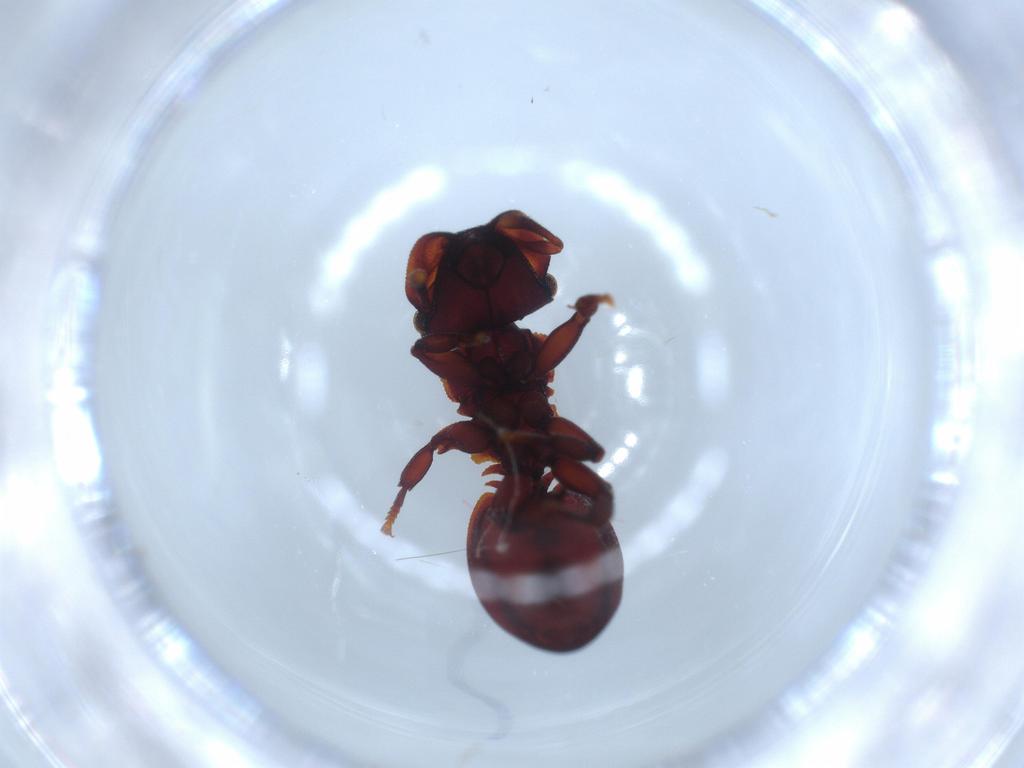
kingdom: Animalia
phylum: Arthropoda
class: Insecta
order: Hymenoptera
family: Formicidae
